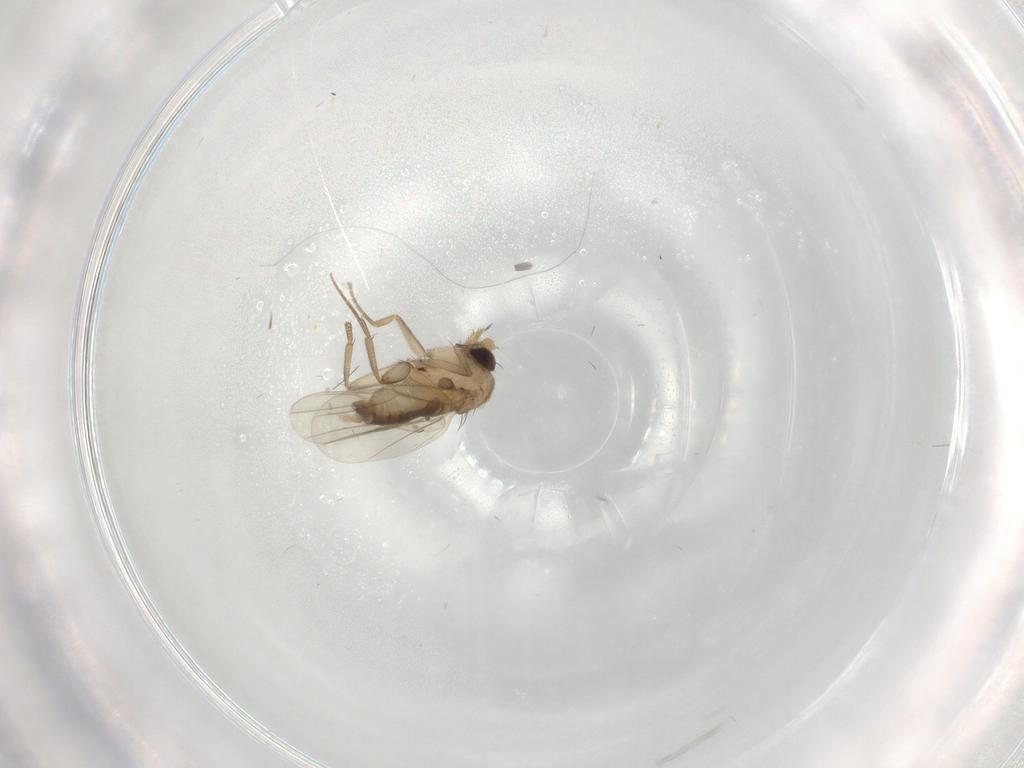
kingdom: Animalia
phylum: Arthropoda
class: Insecta
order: Diptera
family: Phoridae
